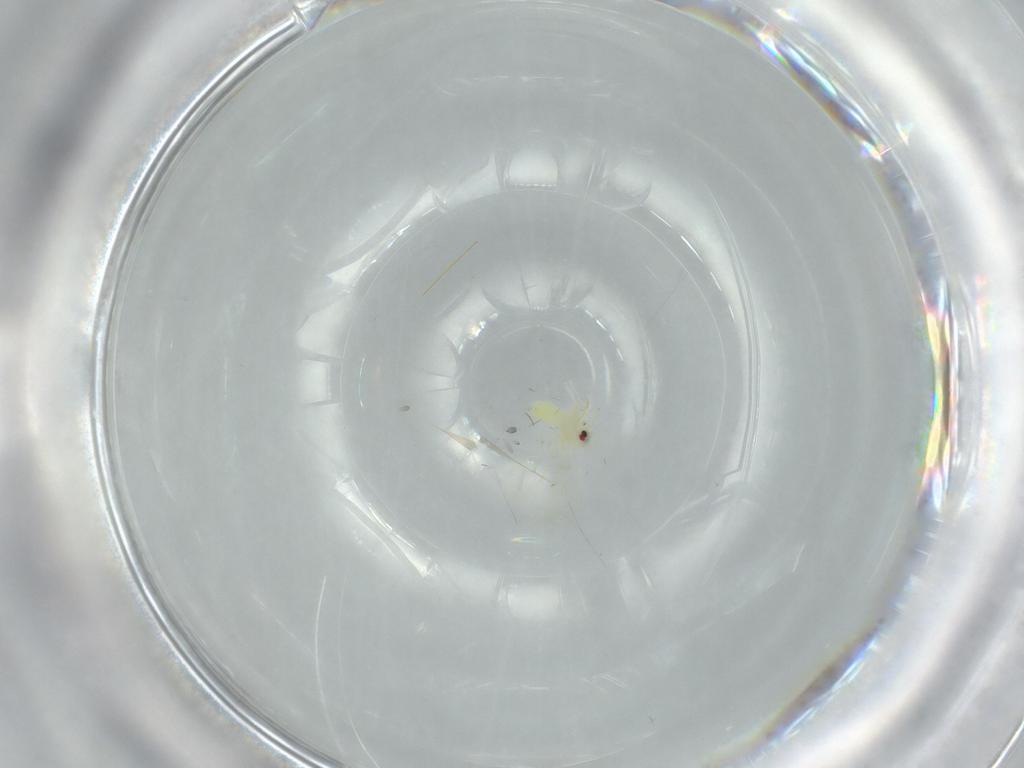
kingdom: Animalia
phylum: Arthropoda
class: Insecta
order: Hemiptera
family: Aleyrodidae
